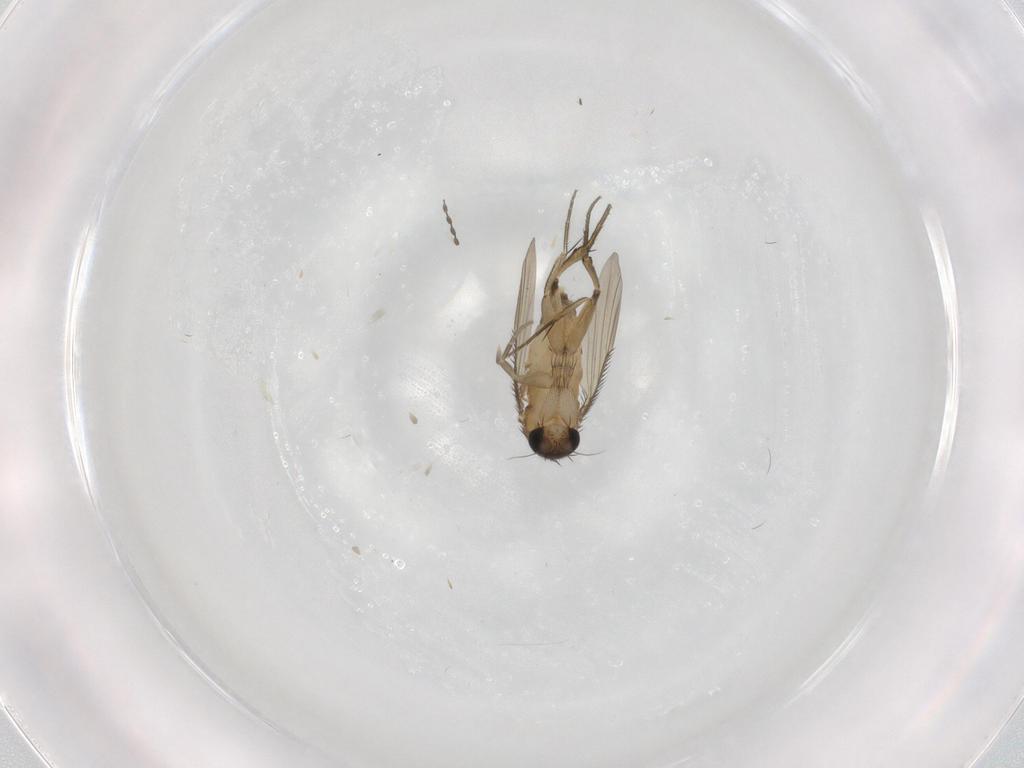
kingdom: Animalia
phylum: Arthropoda
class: Insecta
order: Diptera
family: Phoridae
